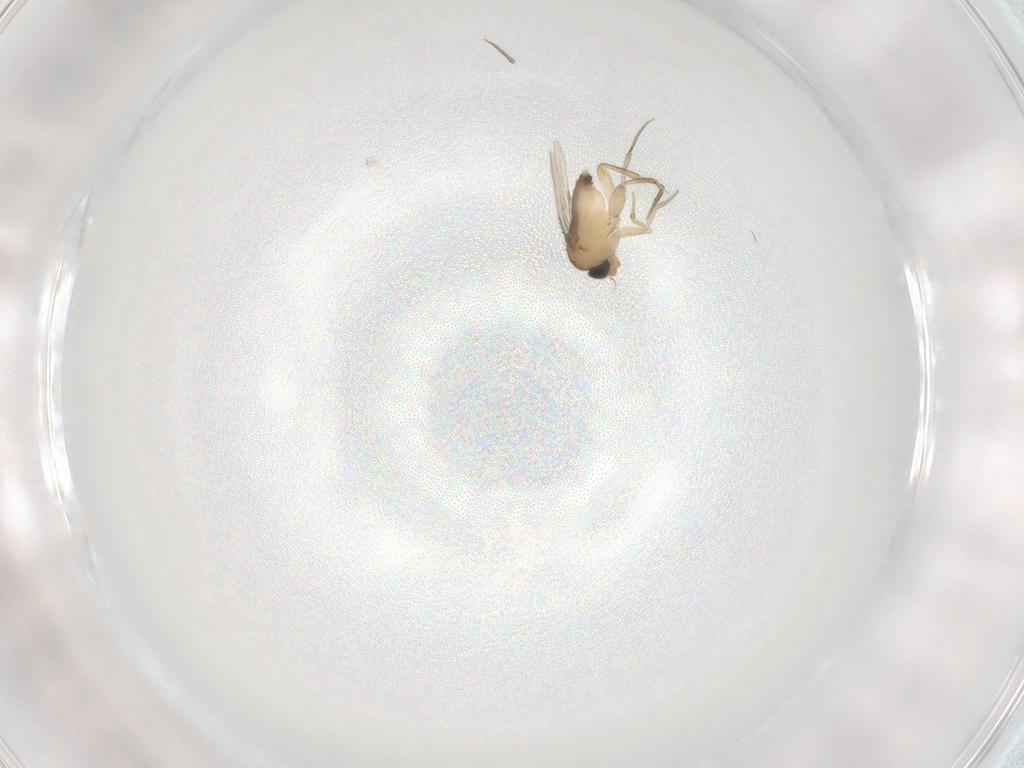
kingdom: Animalia
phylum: Arthropoda
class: Insecta
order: Diptera
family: Phoridae
